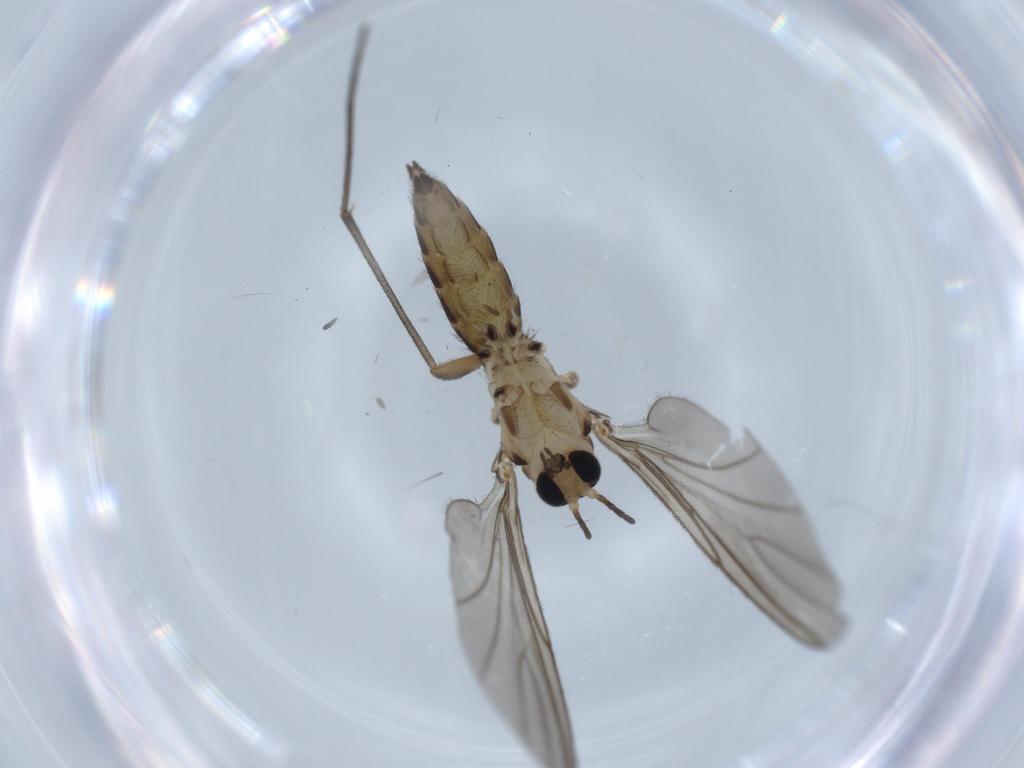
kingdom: Animalia
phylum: Arthropoda
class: Insecta
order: Diptera
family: Sciaridae
